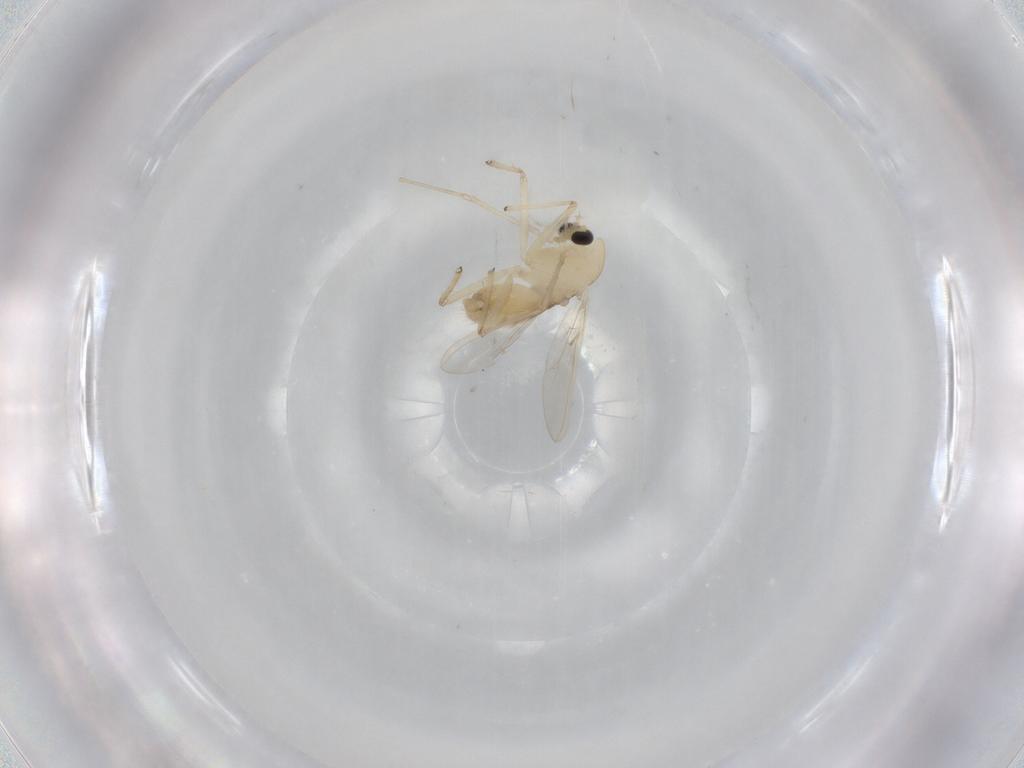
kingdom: Animalia
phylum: Arthropoda
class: Insecta
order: Diptera
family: Chironomidae
